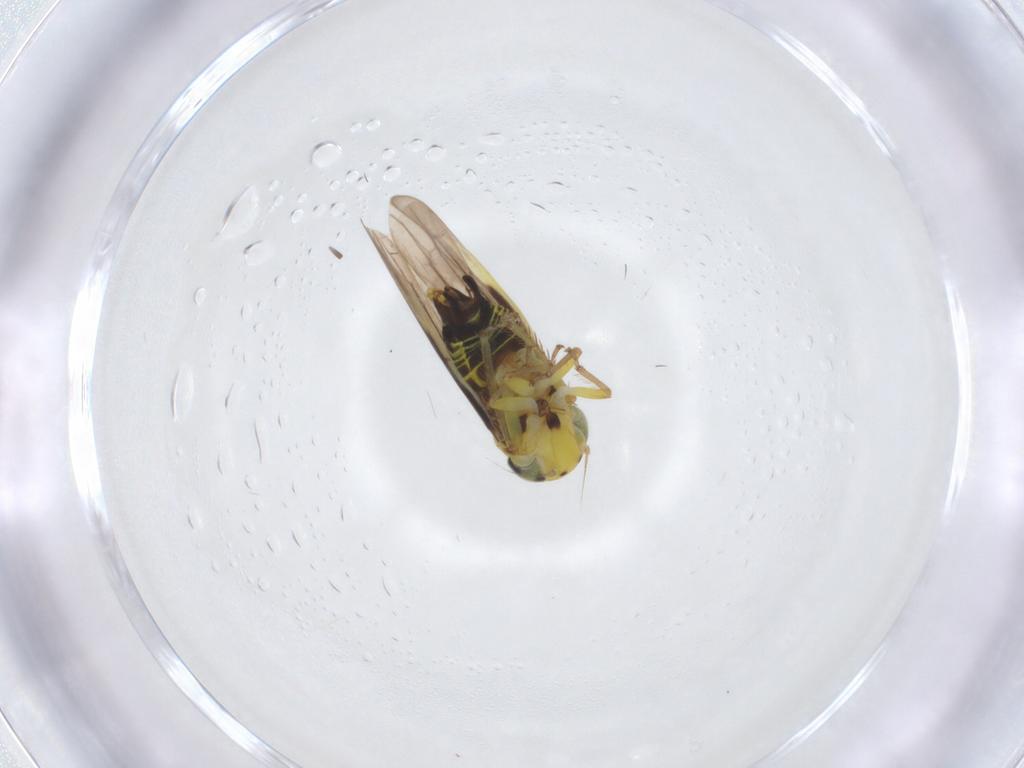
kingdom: Animalia
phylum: Arthropoda
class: Insecta
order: Hemiptera
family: Cicadellidae
